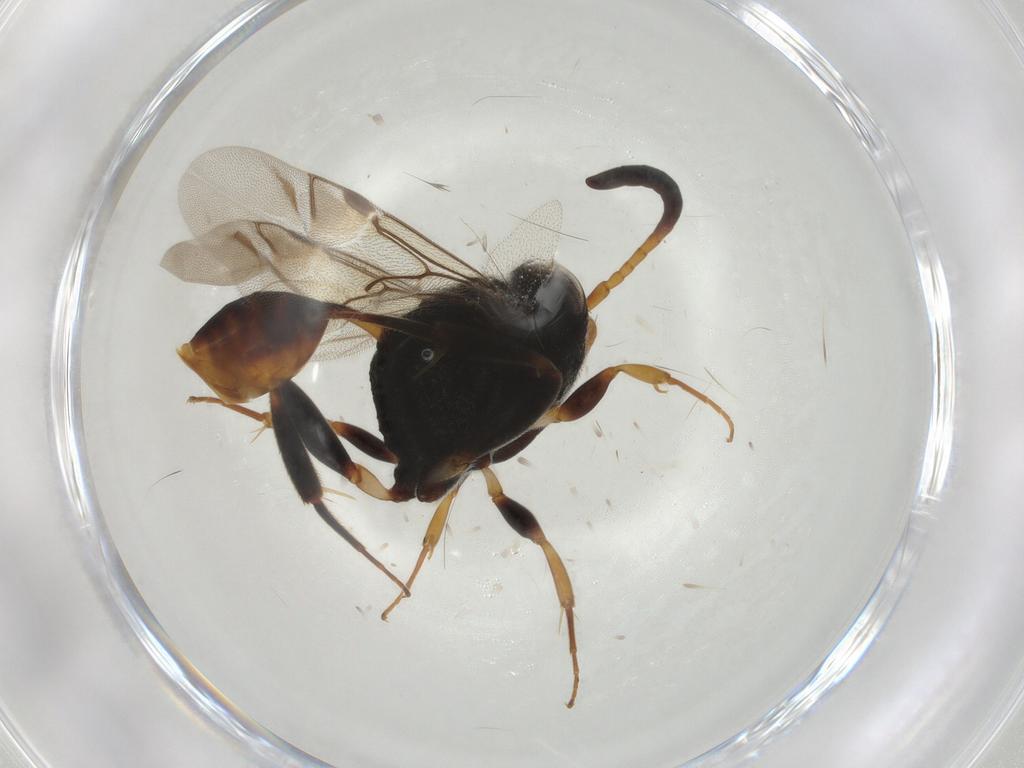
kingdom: Animalia
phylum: Arthropoda
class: Insecta
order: Hymenoptera
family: Evaniidae
